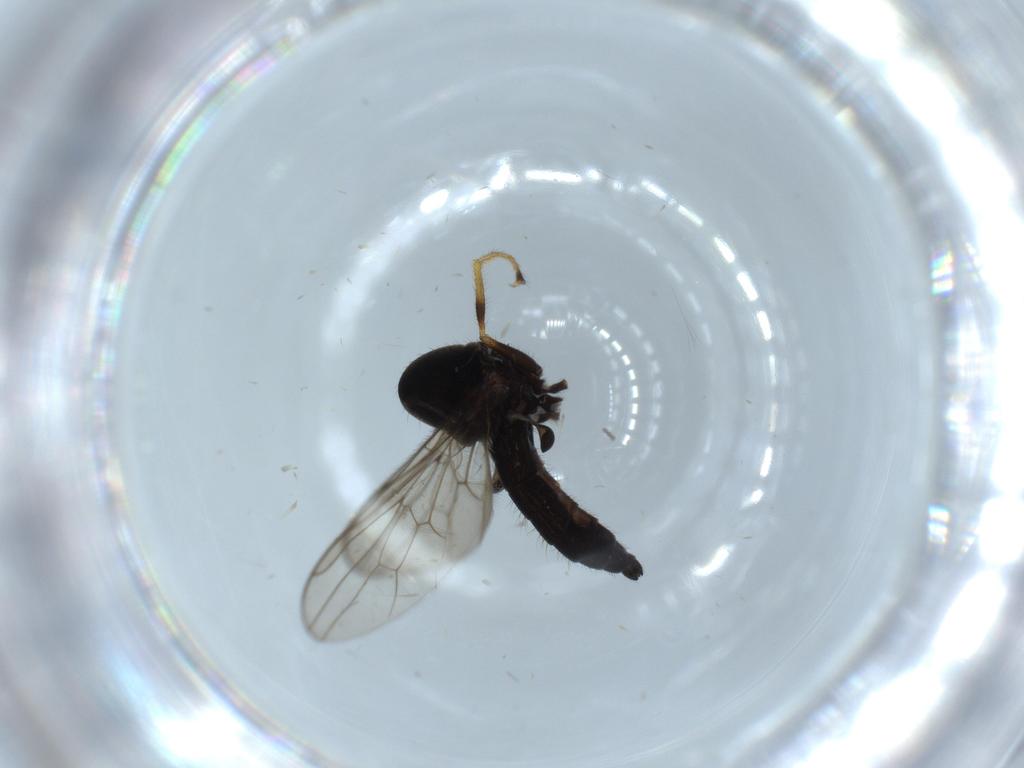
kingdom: Animalia
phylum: Arthropoda
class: Insecta
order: Diptera
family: Hybotidae
